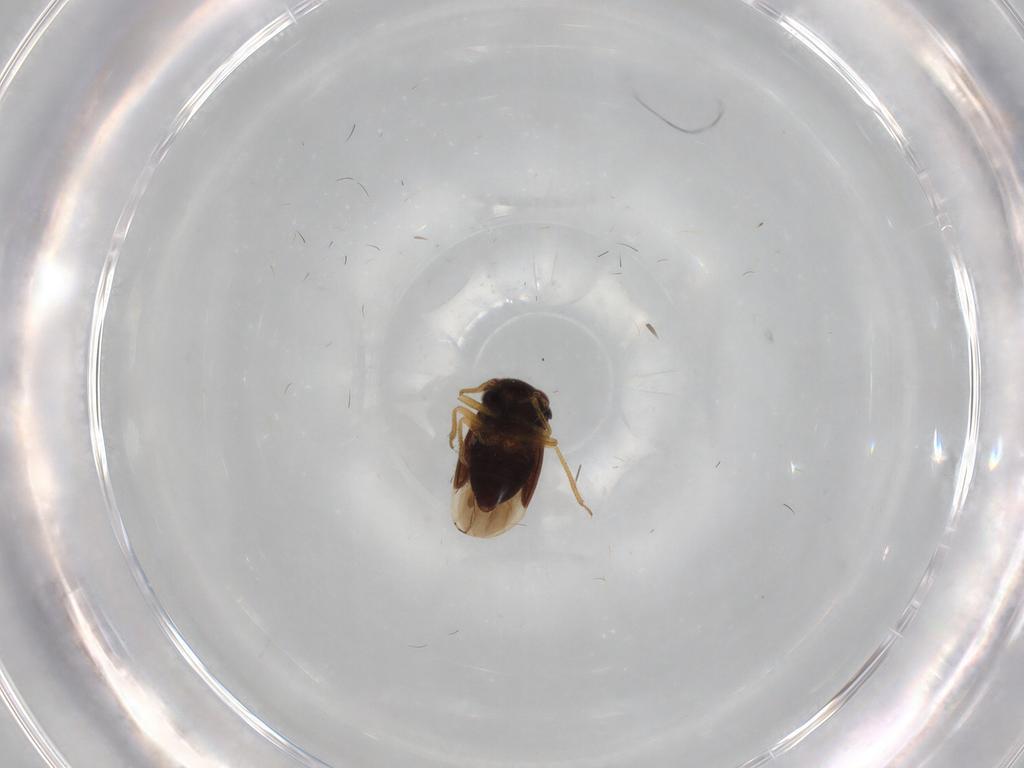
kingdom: Animalia
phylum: Arthropoda
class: Insecta
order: Hemiptera
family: Schizopteridae
